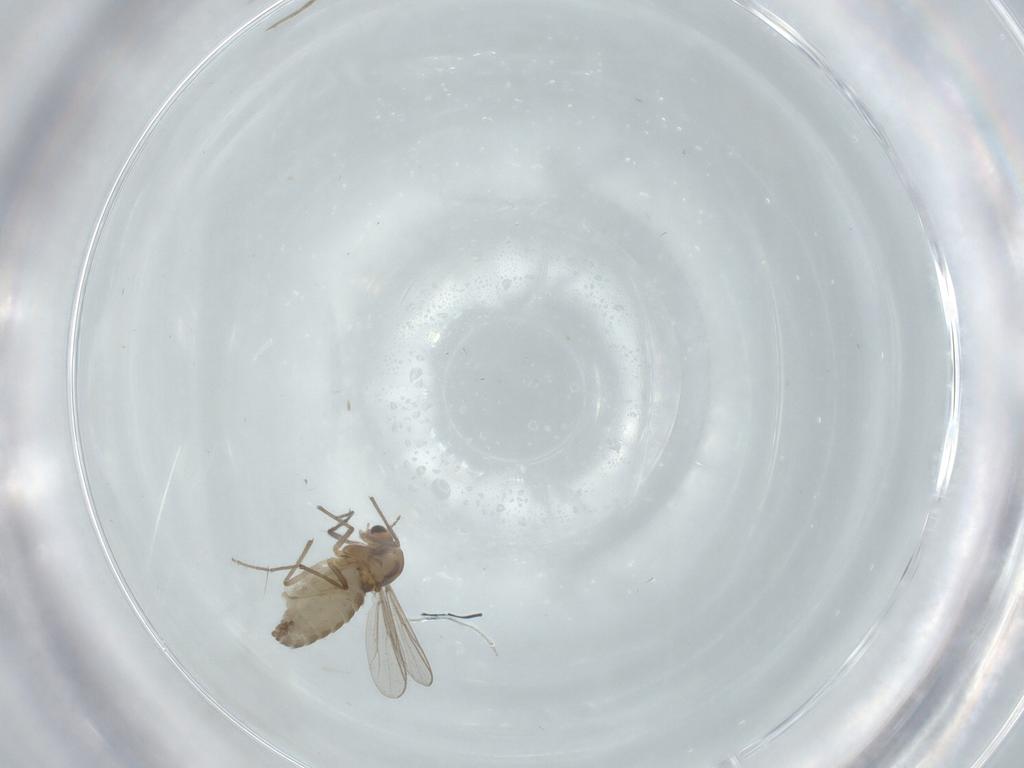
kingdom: Animalia
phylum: Arthropoda
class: Insecta
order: Diptera
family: Chironomidae
